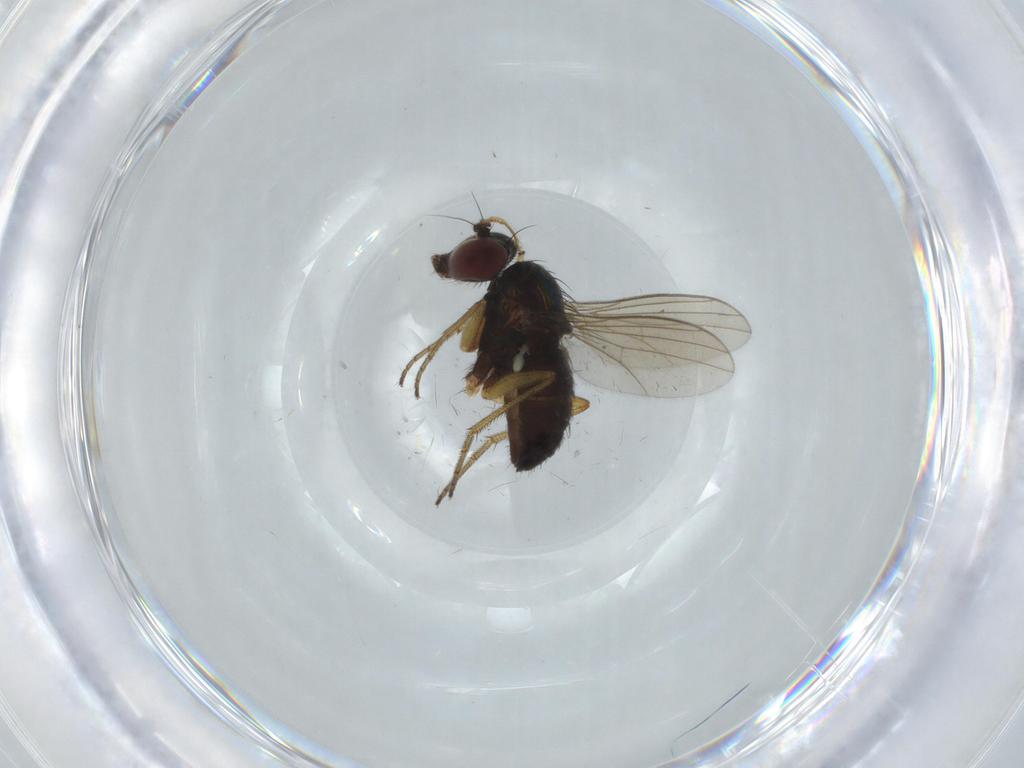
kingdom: Animalia
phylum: Arthropoda
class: Insecta
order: Diptera
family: Dolichopodidae
